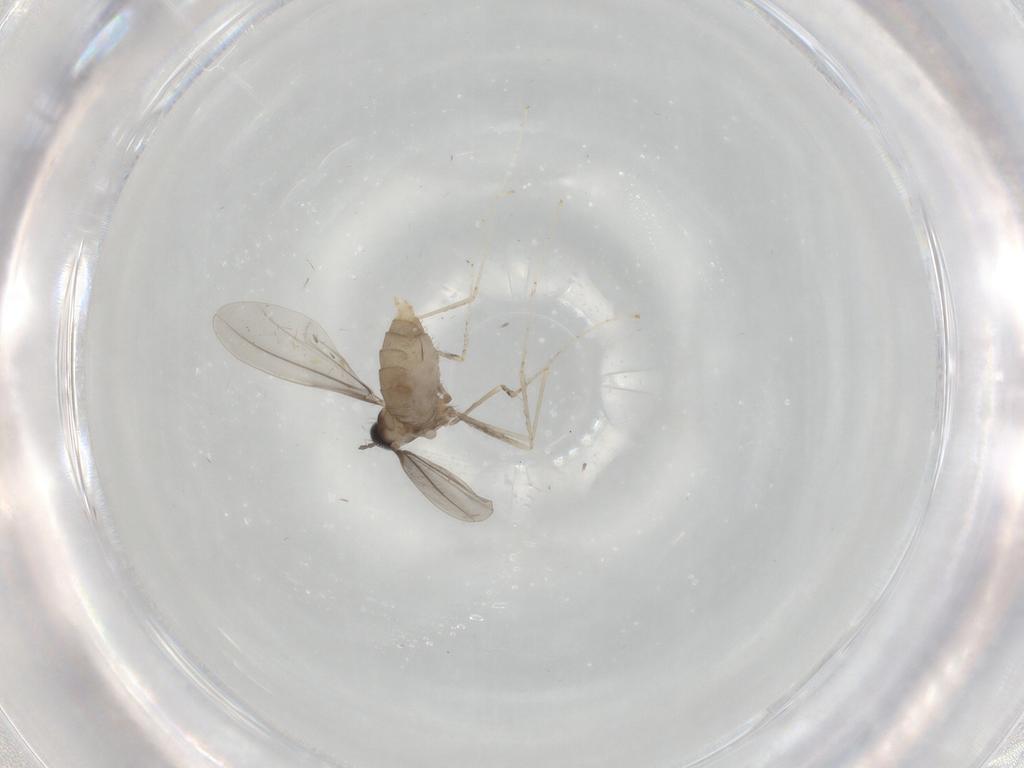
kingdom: Animalia
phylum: Arthropoda
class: Insecta
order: Diptera
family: Cecidomyiidae
